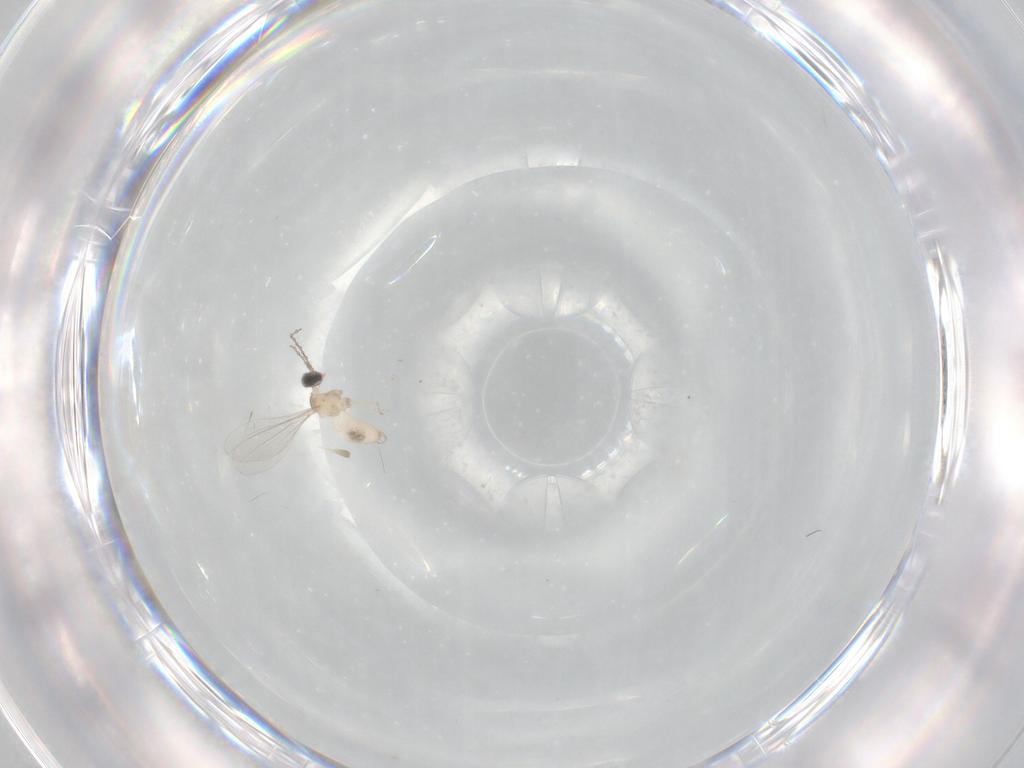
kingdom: Animalia
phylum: Arthropoda
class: Insecta
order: Diptera
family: Cecidomyiidae
